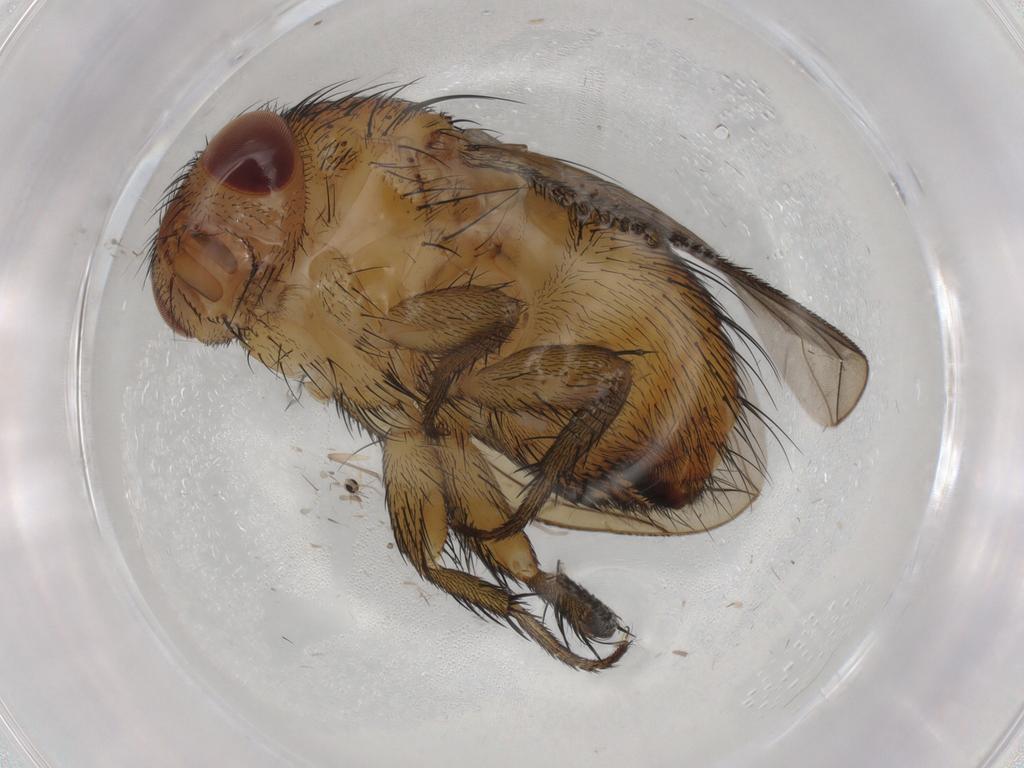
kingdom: Animalia
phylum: Arthropoda
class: Insecta
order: Diptera
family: Calliphoridae
